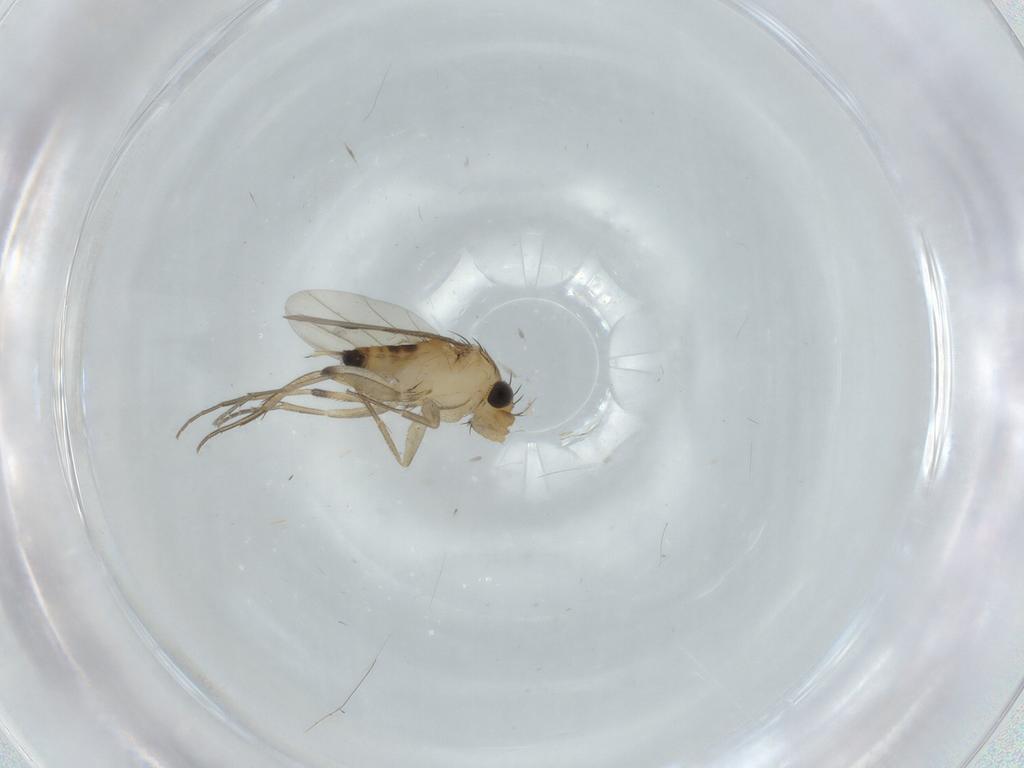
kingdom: Animalia
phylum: Arthropoda
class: Insecta
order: Diptera
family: Phoridae
